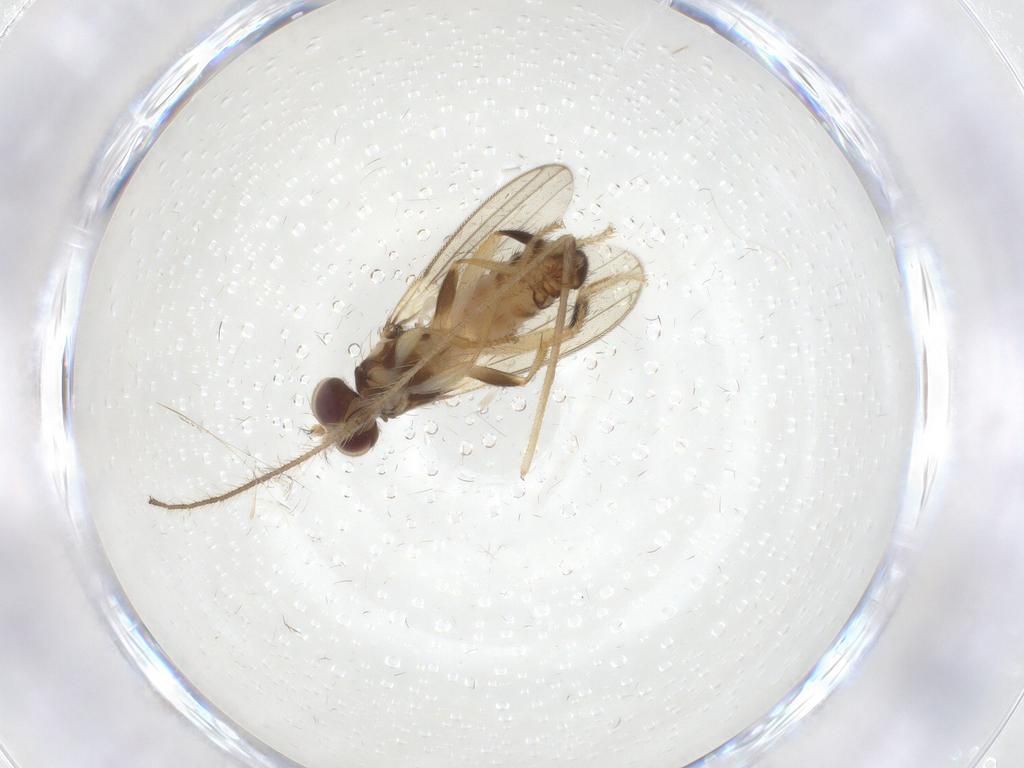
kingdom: Animalia
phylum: Arthropoda
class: Insecta
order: Diptera
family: Periscelididae
